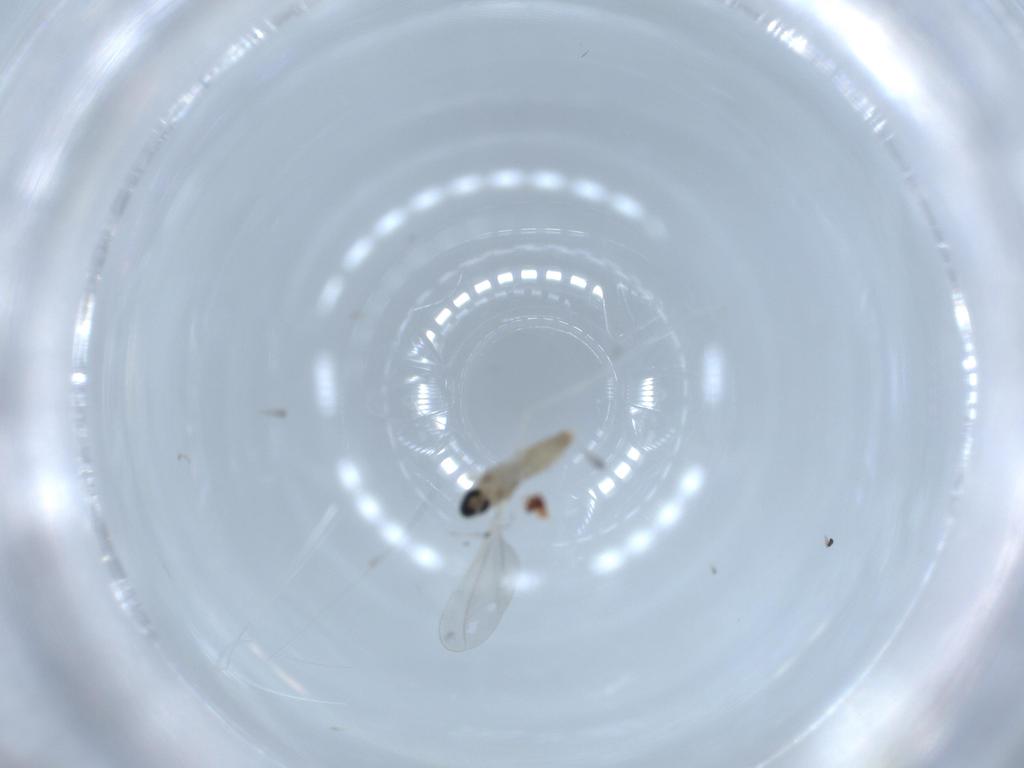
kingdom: Animalia
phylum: Arthropoda
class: Insecta
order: Diptera
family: Cecidomyiidae
